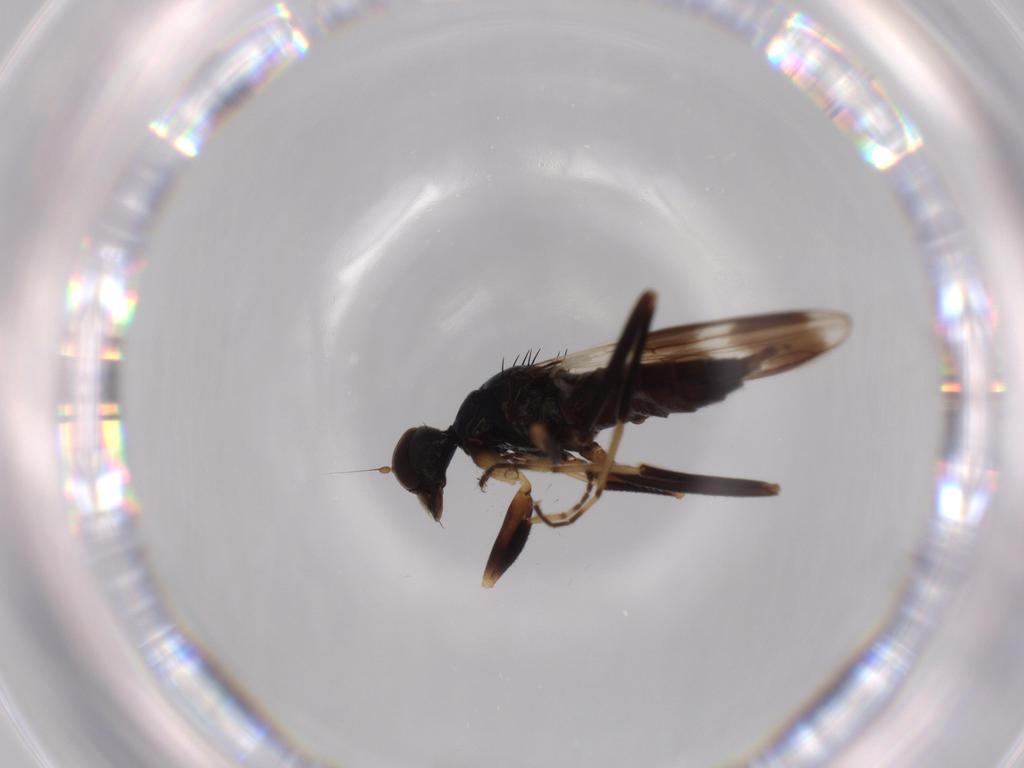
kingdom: Animalia
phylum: Arthropoda
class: Insecta
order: Diptera
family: Hybotidae
